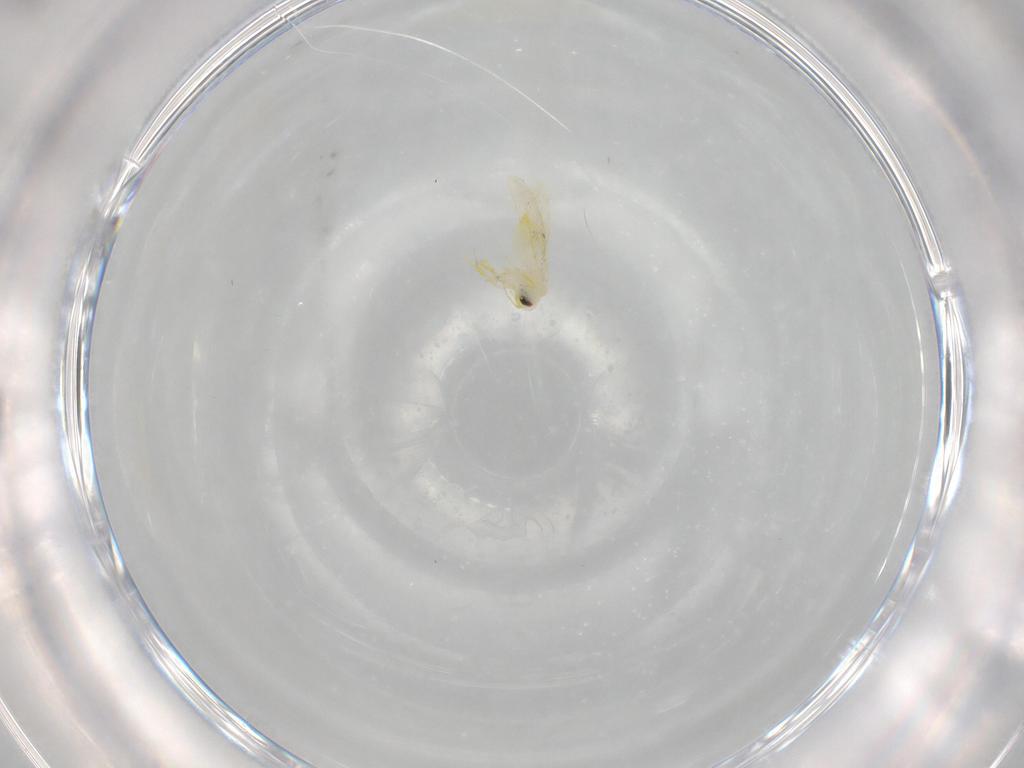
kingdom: Animalia
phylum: Arthropoda
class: Insecta
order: Hemiptera
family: Aleyrodidae
